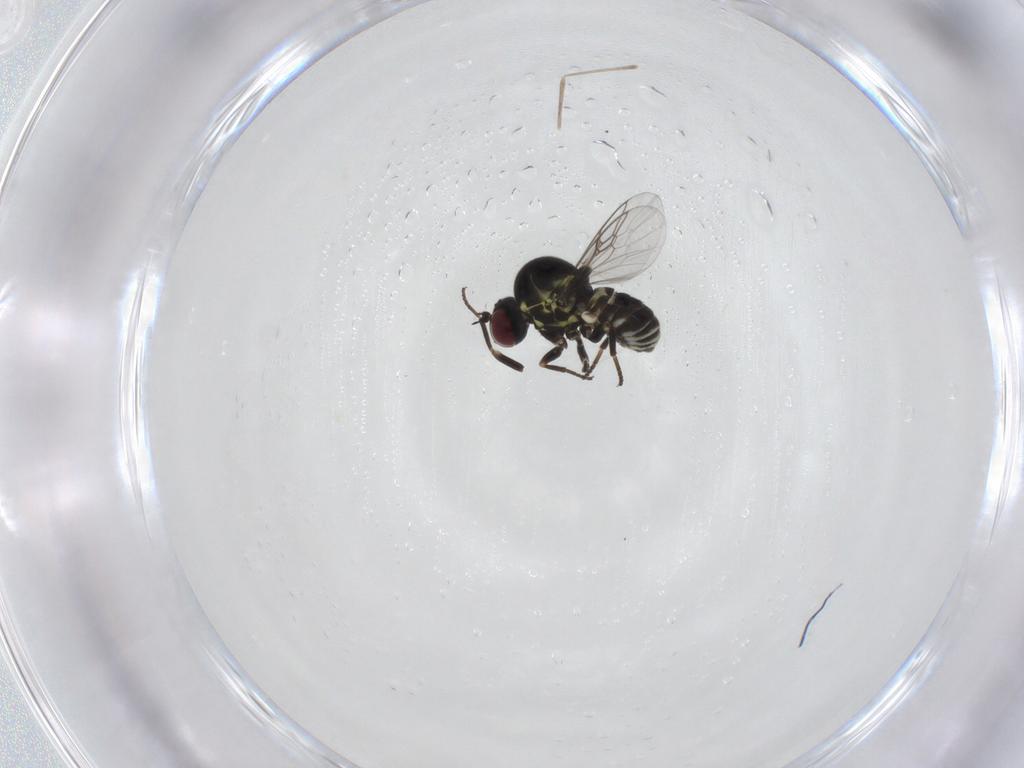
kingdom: Animalia
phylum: Arthropoda
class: Insecta
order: Diptera
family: Mythicomyiidae
